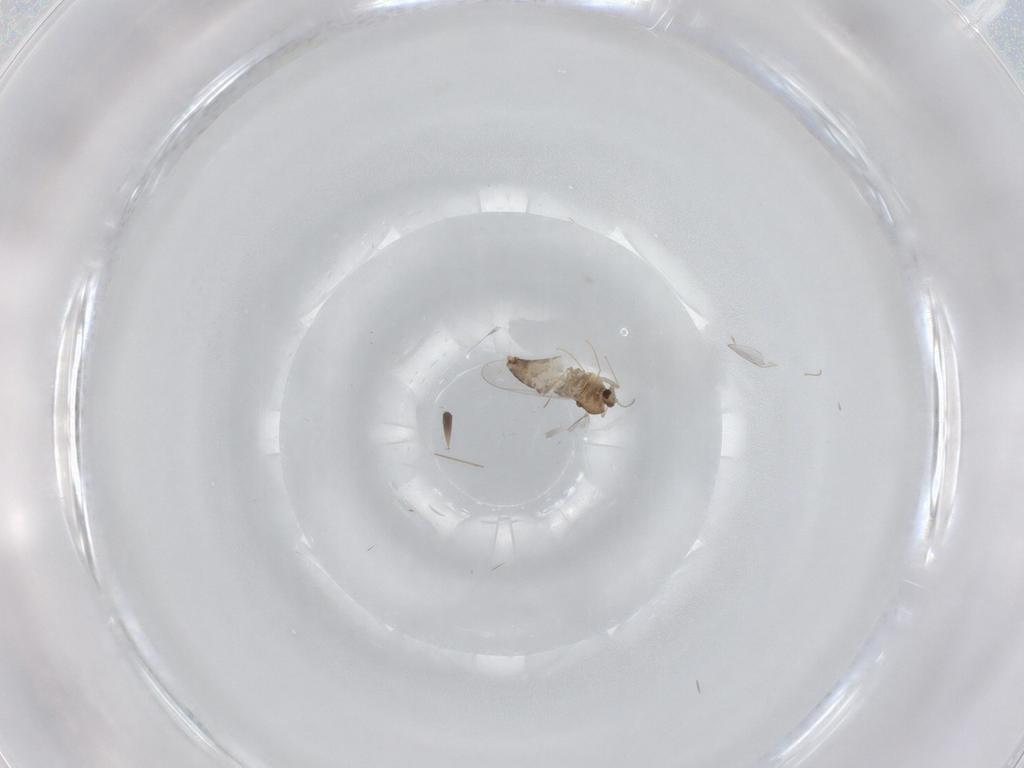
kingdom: Animalia
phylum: Arthropoda
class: Insecta
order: Diptera
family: Chironomidae
